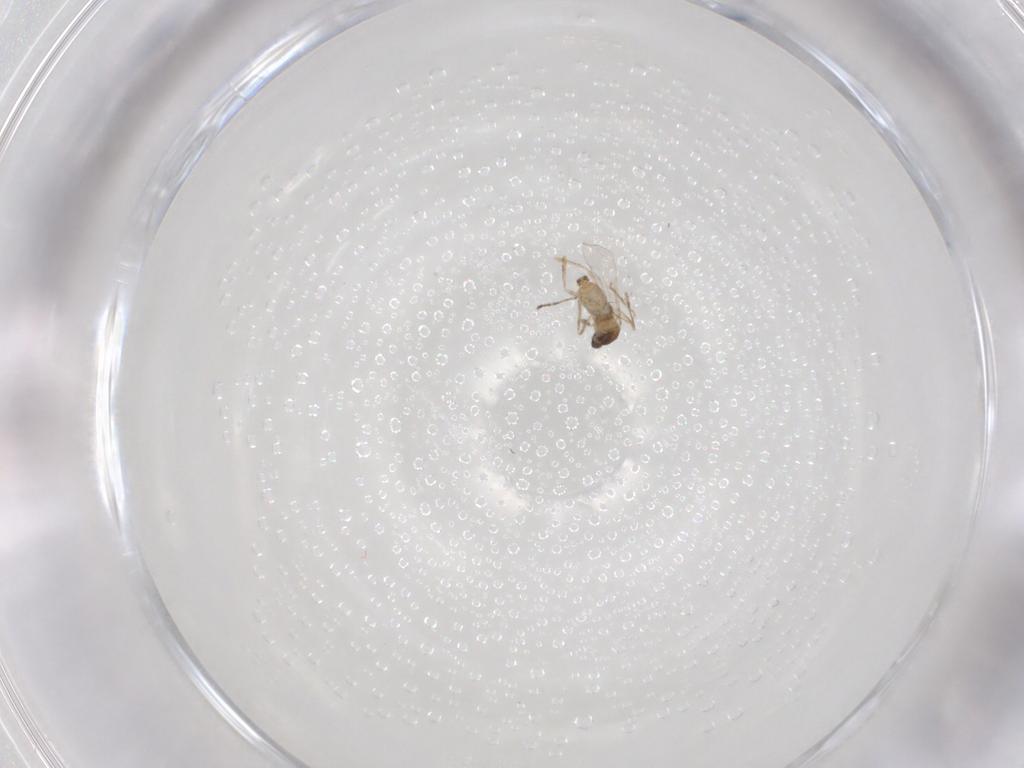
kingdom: Animalia
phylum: Arthropoda
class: Insecta
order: Diptera
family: Cecidomyiidae
